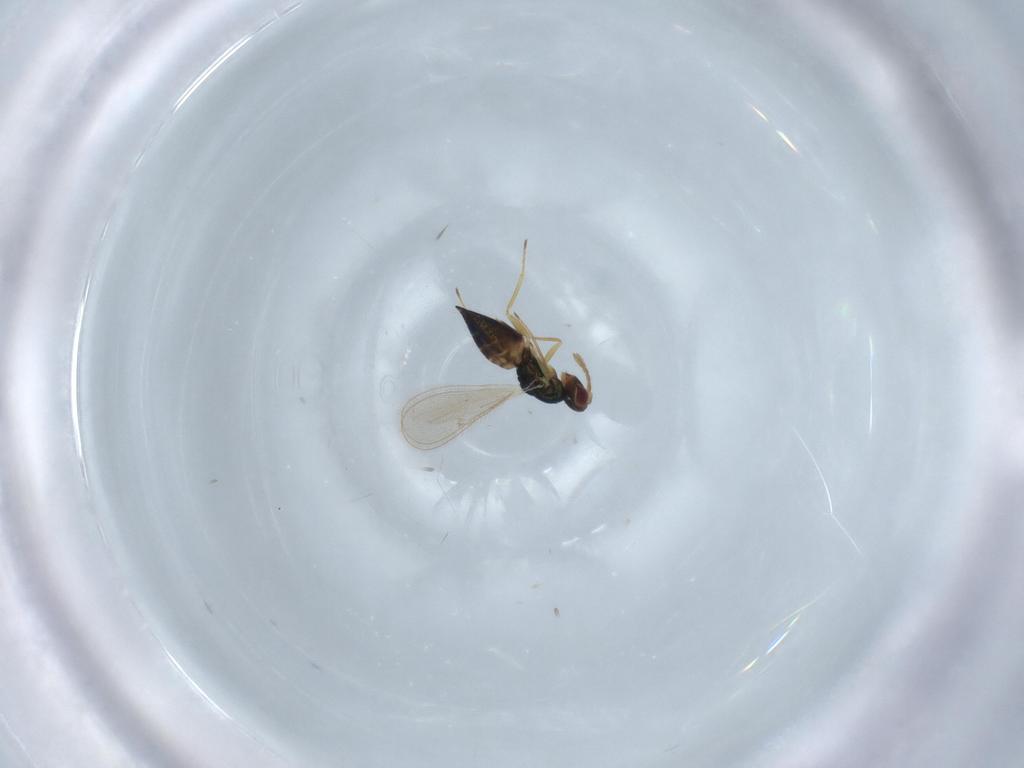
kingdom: Animalia
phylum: Arthropoda
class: Insecta
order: Hymenoptera
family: Eulophidae
